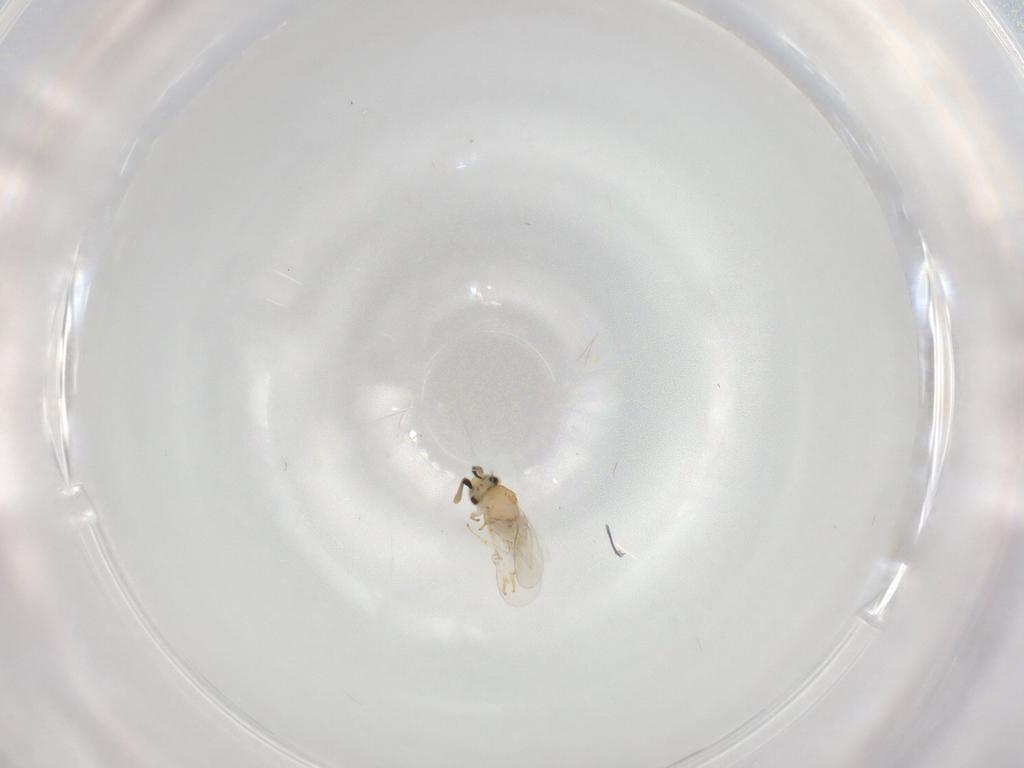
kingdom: Animalia
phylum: Arthropoda
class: Insecta
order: Hymenoptera
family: Encyrtidae
